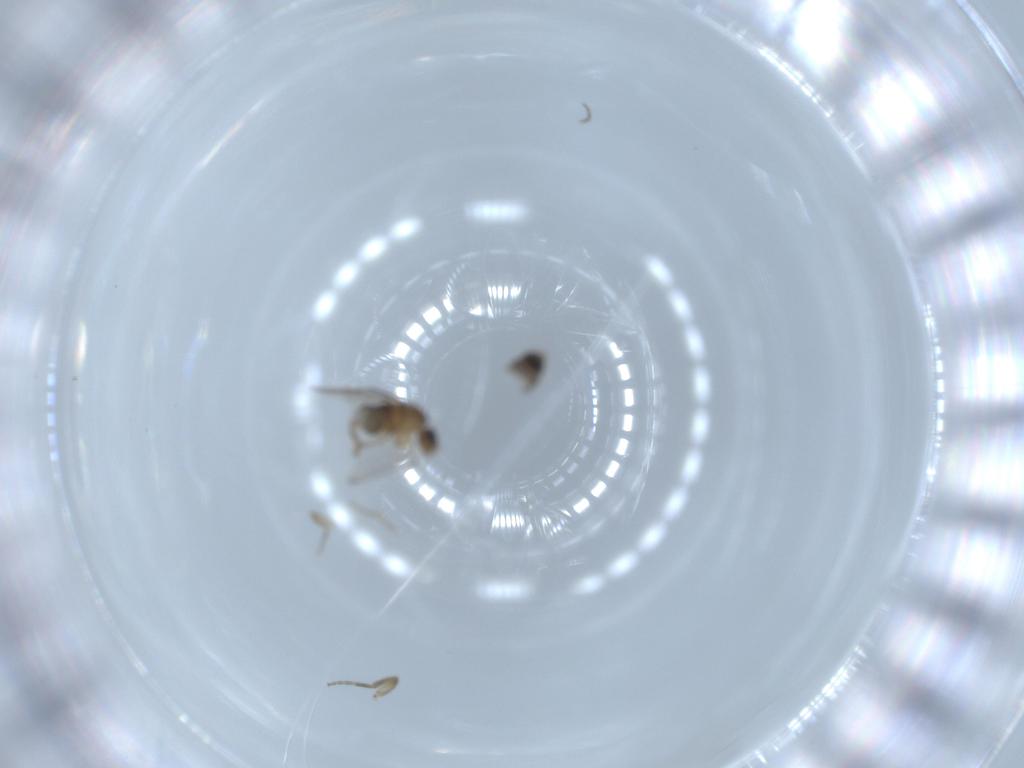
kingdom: Animalia
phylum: Arthropoda
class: Insecta
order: Diptera
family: Phoridae
